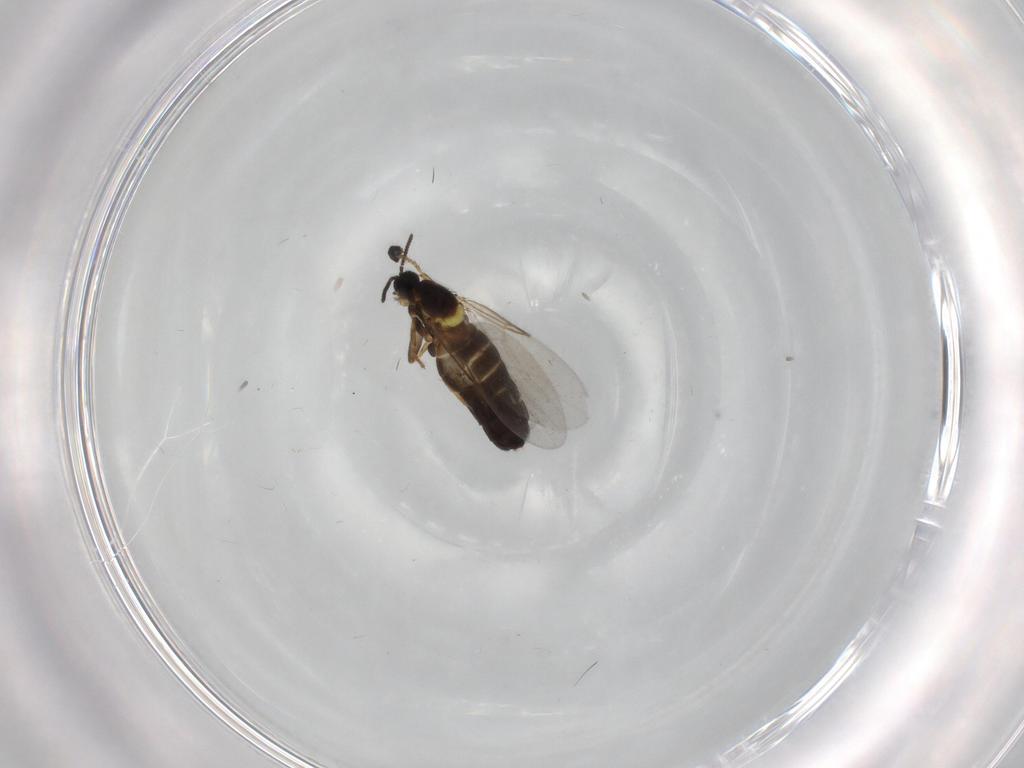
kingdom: Animalia
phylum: Arthropoda
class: Insecta
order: Diptera
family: Scatopsidae
